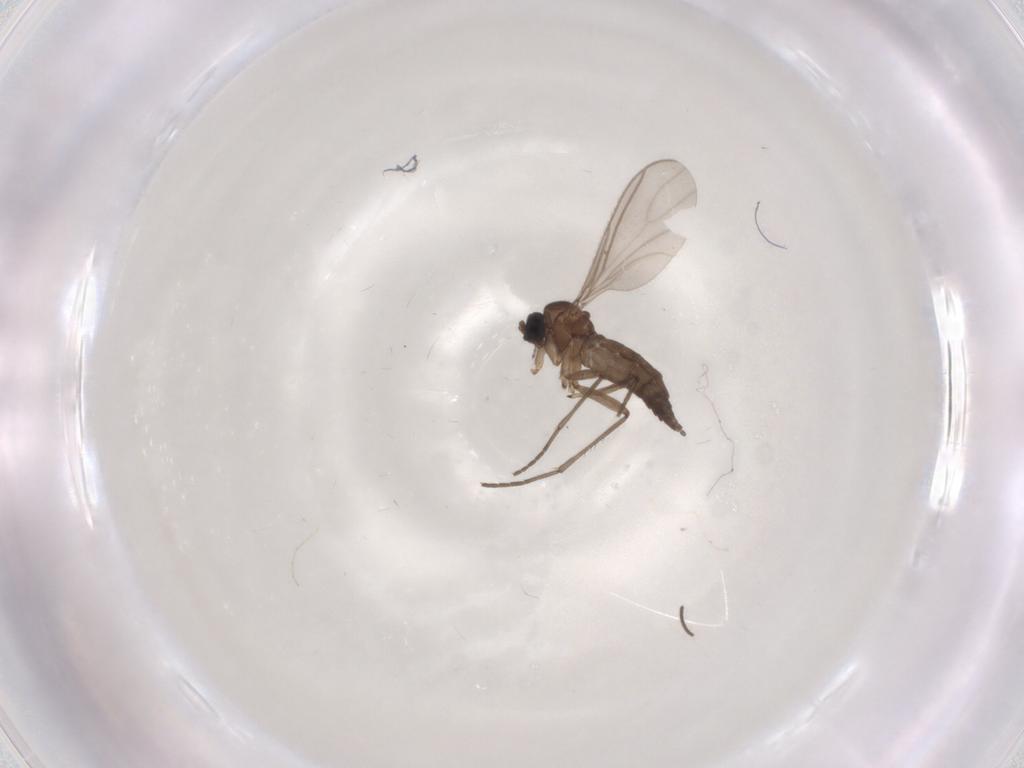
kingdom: Animalia
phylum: Arthropoda
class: Insecta
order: Diptera
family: Sciaridae
